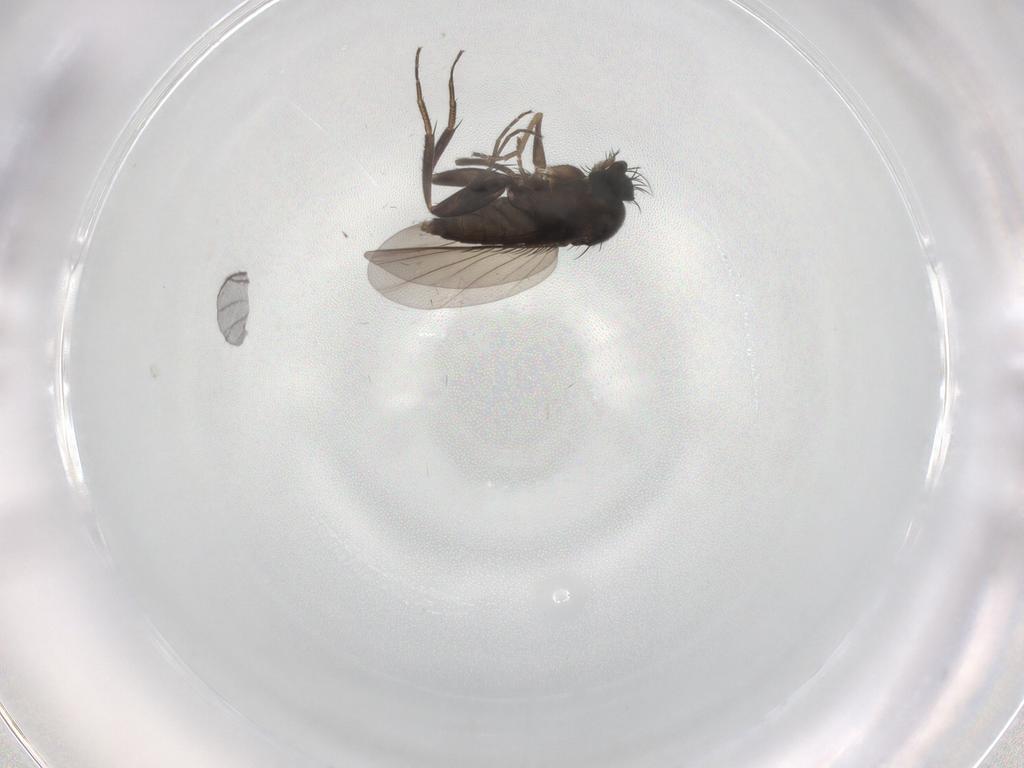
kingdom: Animalia
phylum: Arthropoda
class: Insecta
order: Diptera
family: Phoridae
